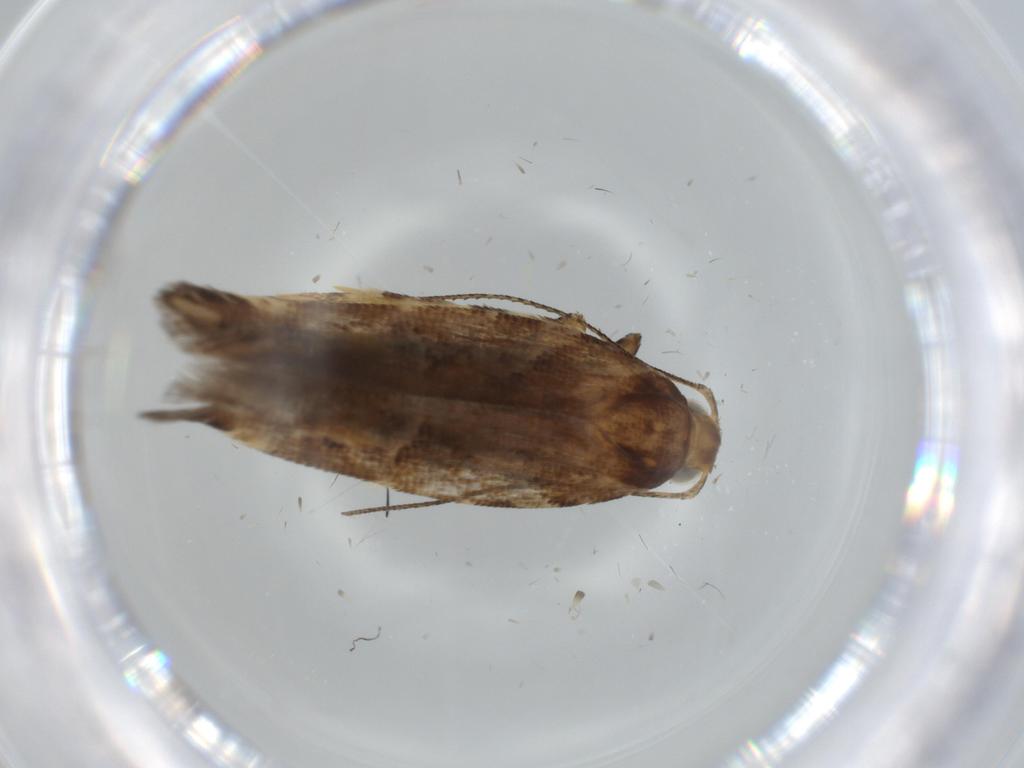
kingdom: Animalia
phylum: Arthropoda
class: Insecta
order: Lepidoptera
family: Gelechiidae
